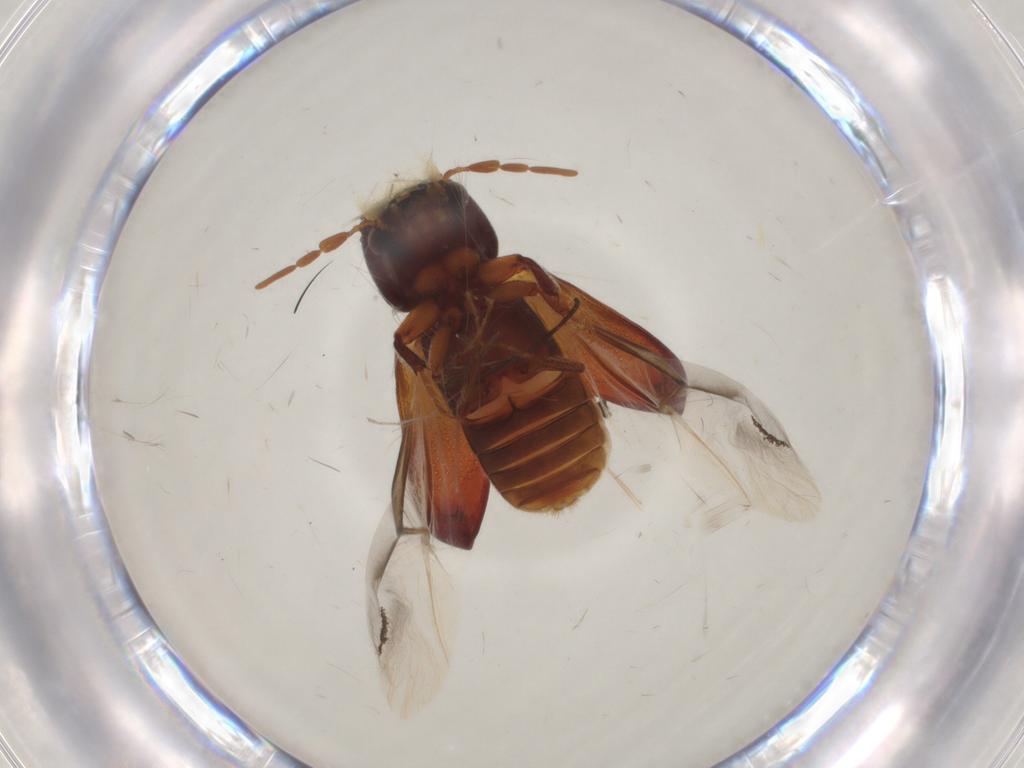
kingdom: Animalia
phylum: Arthropoda
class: Insecta
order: Coleoptera
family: Bostrichidae
